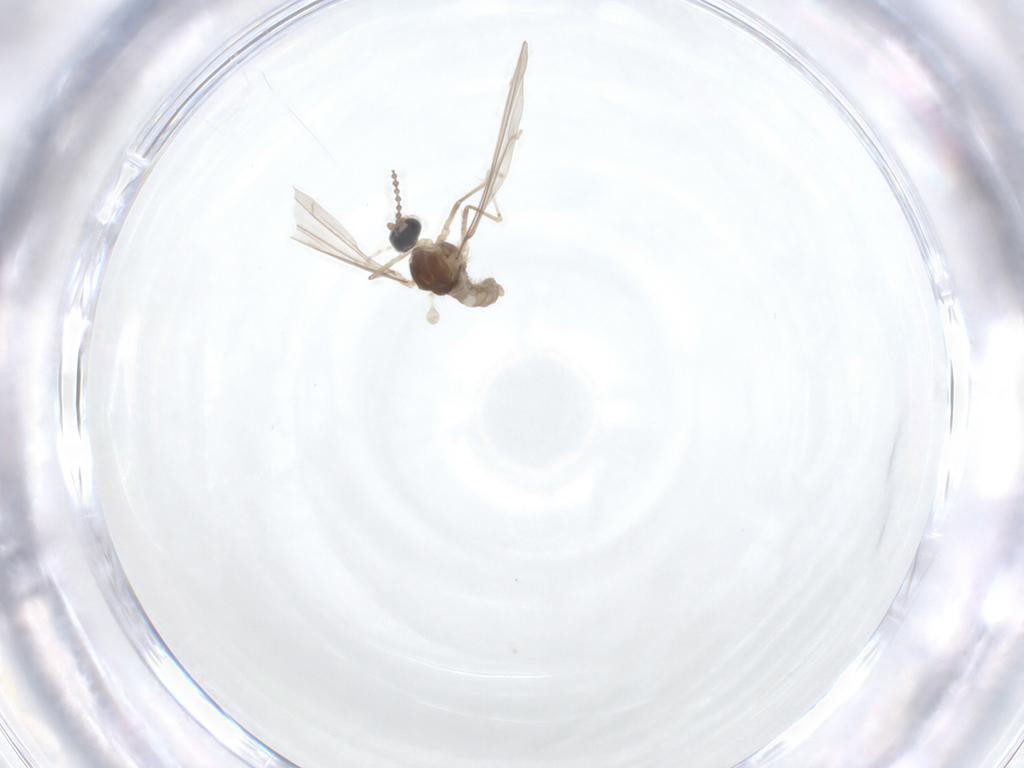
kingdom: Animalia
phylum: Arthropoda
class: Insecta
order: Diptera
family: Cecidomyiidae
